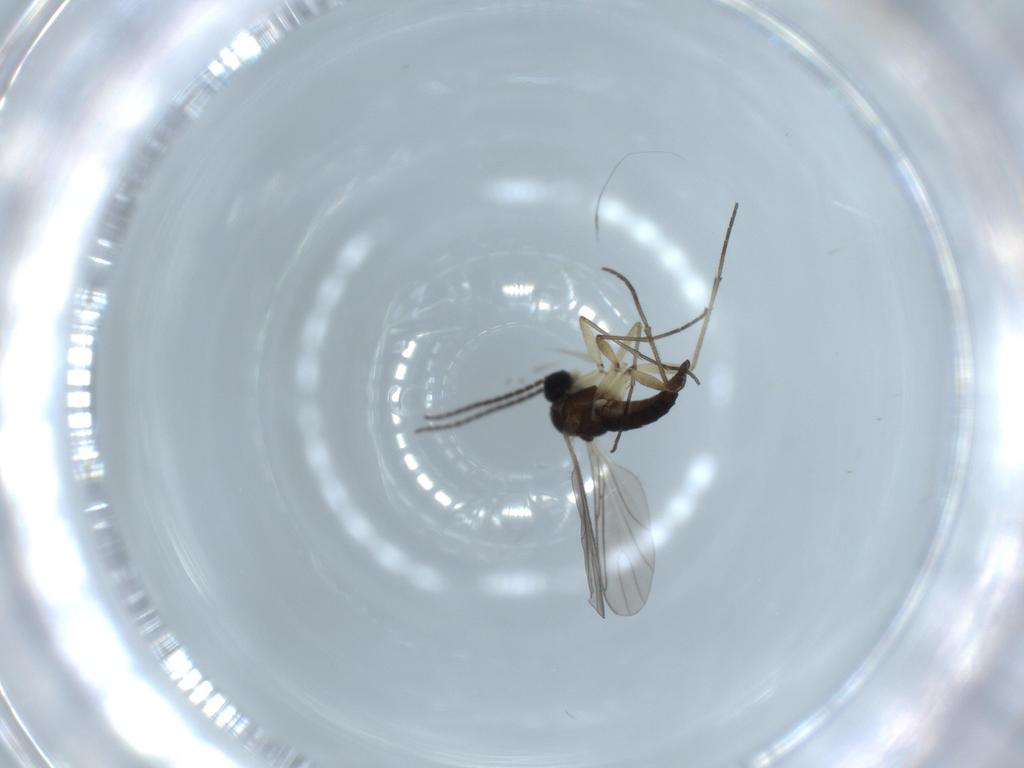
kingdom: Animalia
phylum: Arthropoda
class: Insecta
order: Diptera
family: Sciaridae
